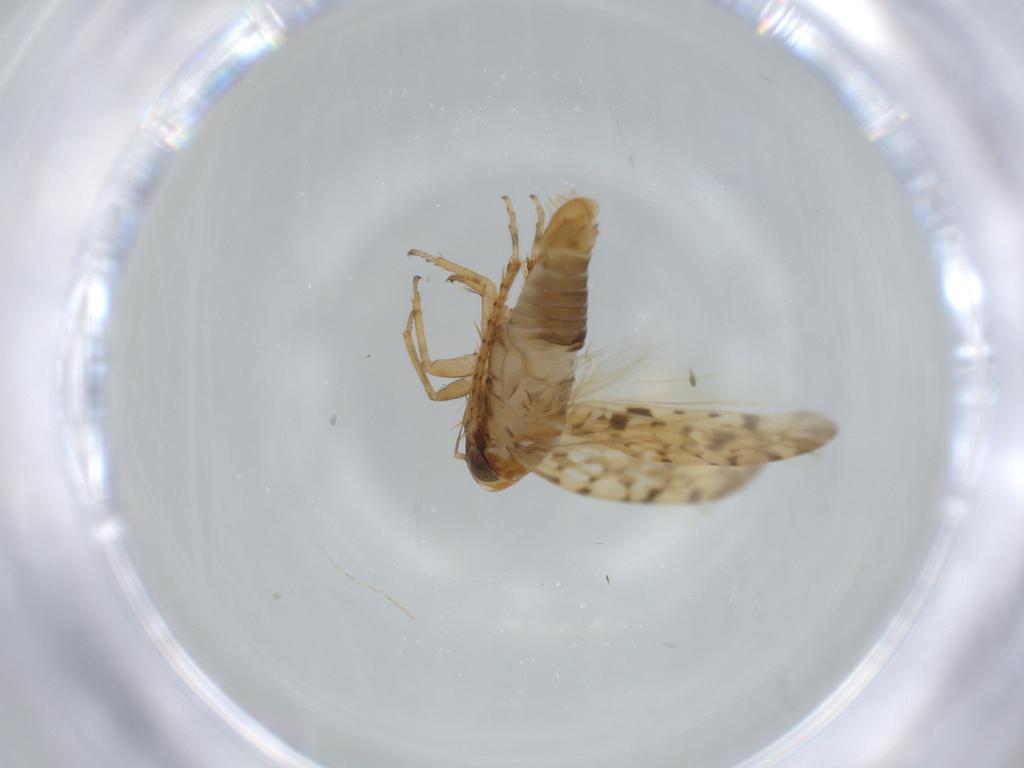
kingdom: Animalia
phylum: Arthropoda
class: Insecta
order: Hemiptera
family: Cicadellidae
